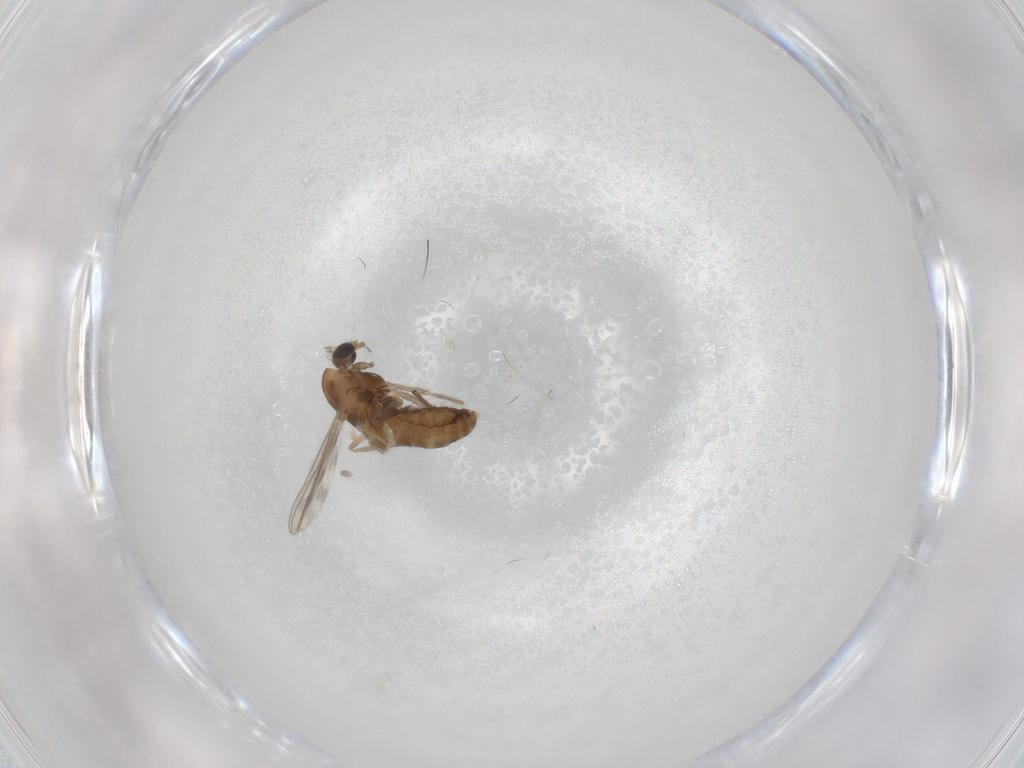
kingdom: Animalia
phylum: Arthropoda
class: Insecta
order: Diptera
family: Chironomidae
